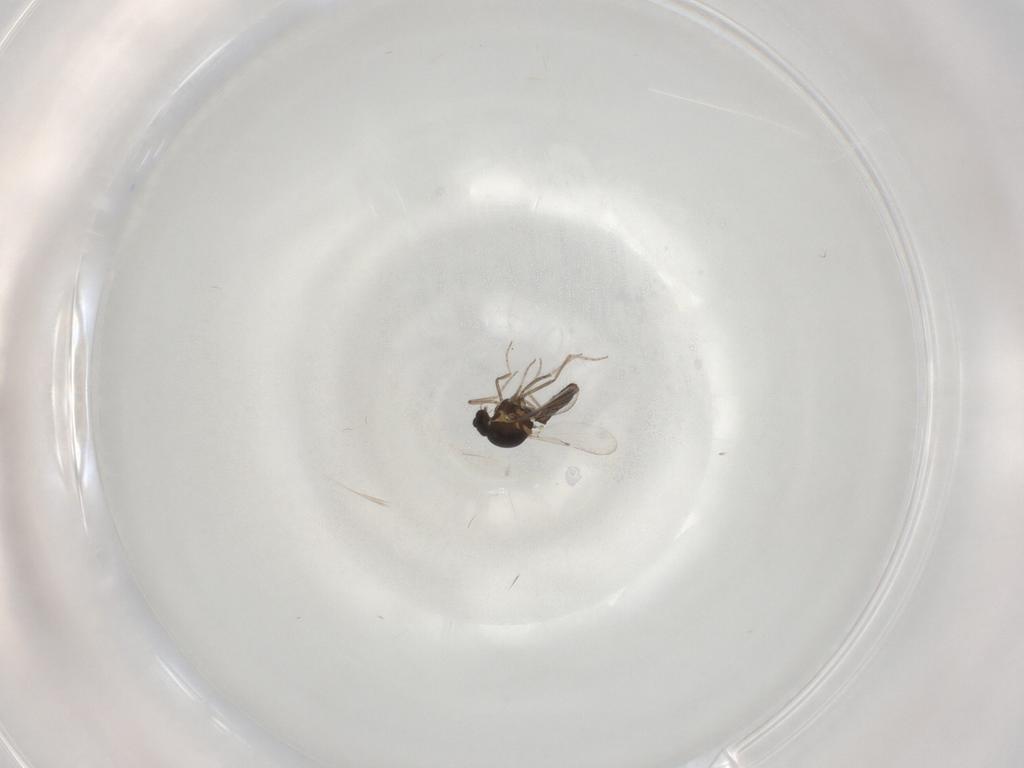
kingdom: Animalia
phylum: Arthropoda
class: Insecta
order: Diptera
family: Ceratopogonidae
